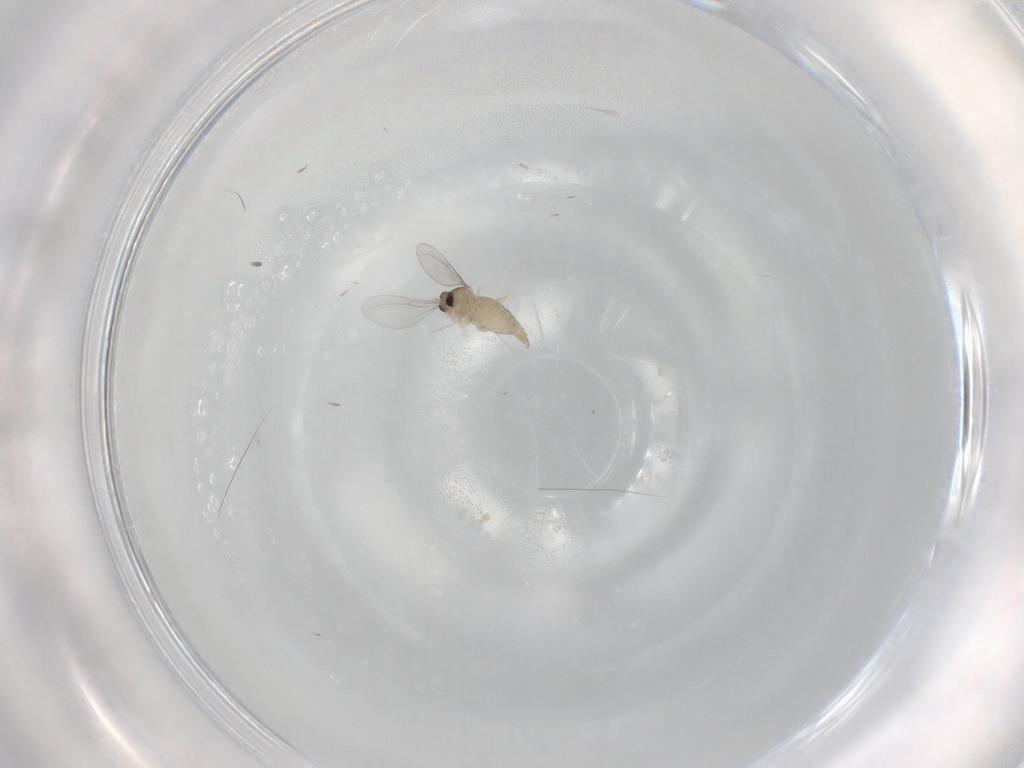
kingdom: Animalia
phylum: Arthropoda
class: Insecta
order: Diptera
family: Cecidomyiidae
